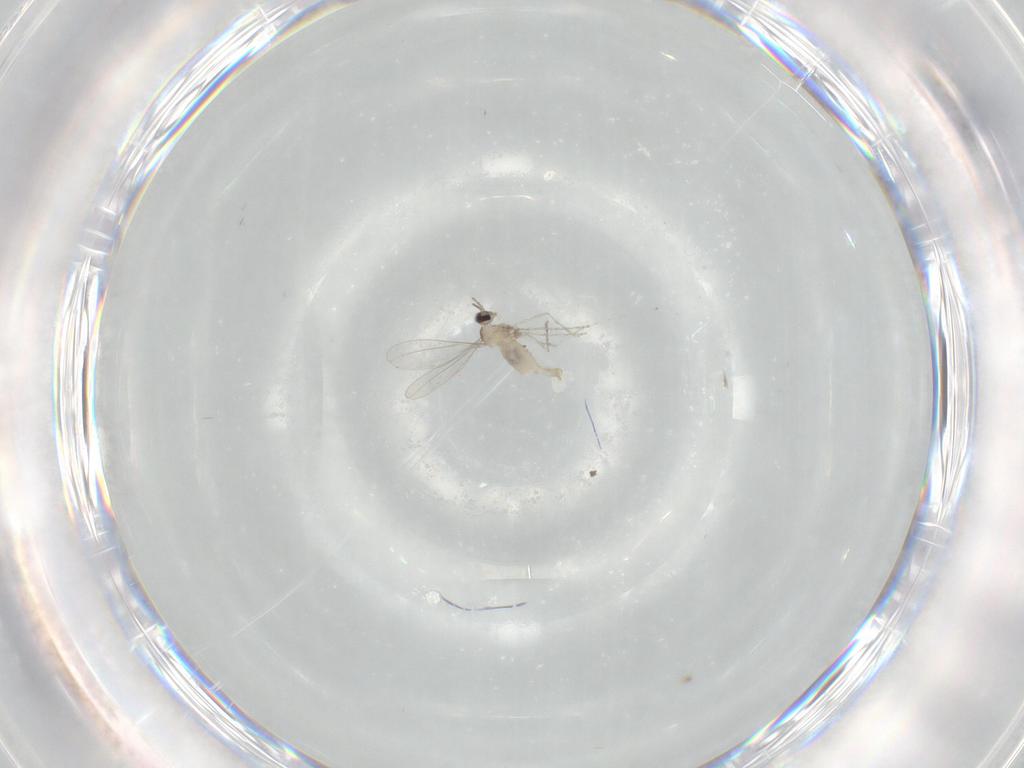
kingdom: Animalia
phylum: Arthropoda
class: Insecta
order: Diptera
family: Cecidomyiidae
